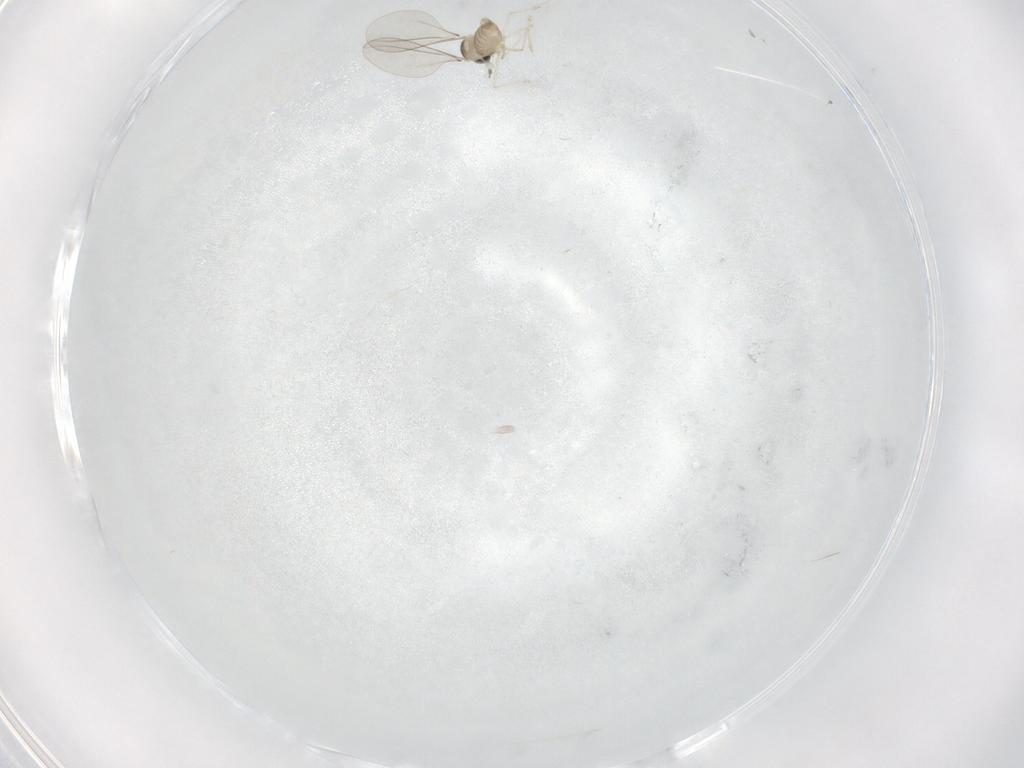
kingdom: Animalia
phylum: Arthropoda
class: Insecta
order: Diptera
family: Cecidomyiidae
